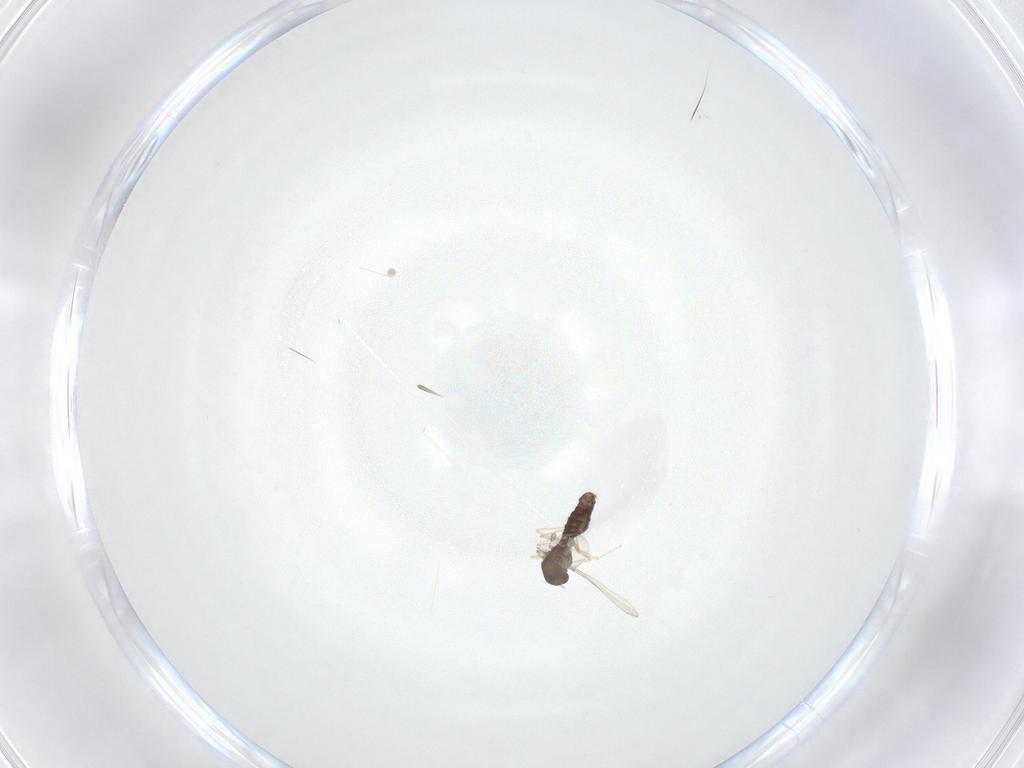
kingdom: Animalia
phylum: Arthropoda
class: Insecta
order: Diptera
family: Chironomidae
